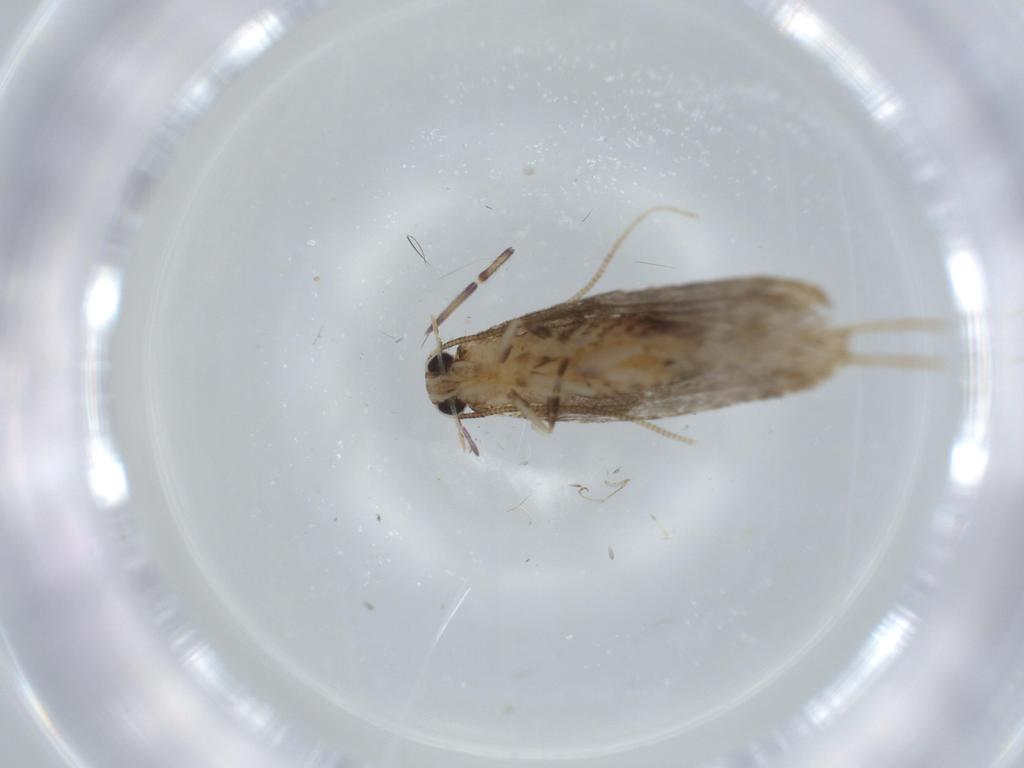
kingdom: Animalia
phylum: Arthropoda
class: Insecta
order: Lepidoptera
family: Tineidae
